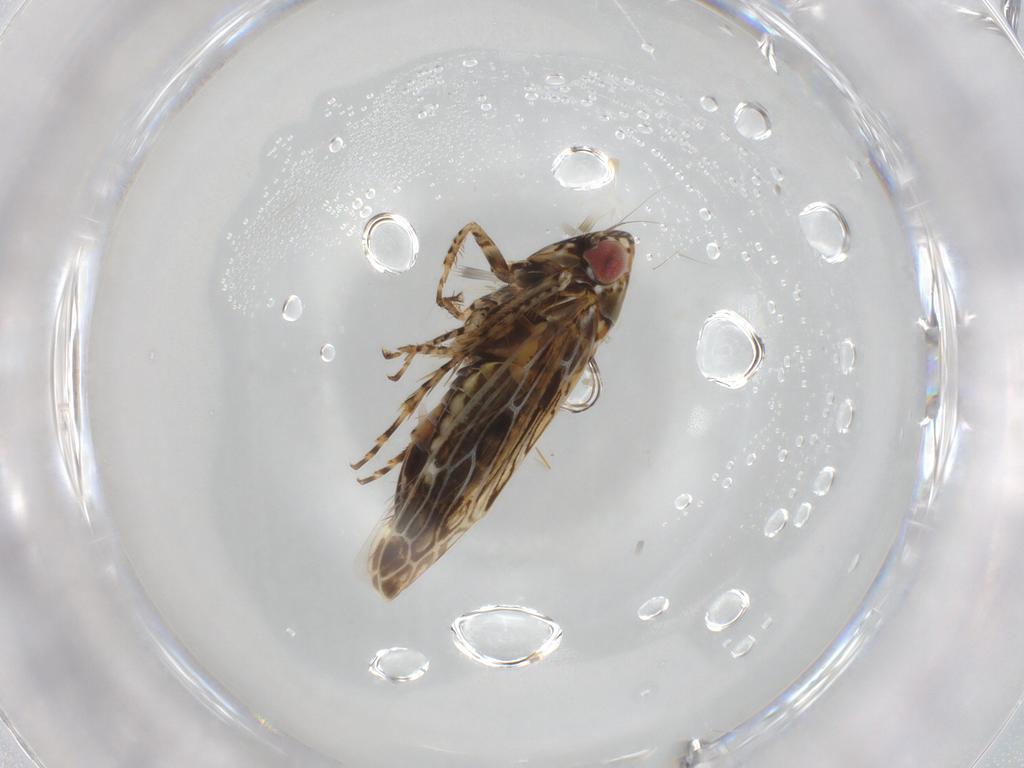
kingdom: Animalia
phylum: Arthropoda
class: Insecta
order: Hemiptera
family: Cicadellidae
